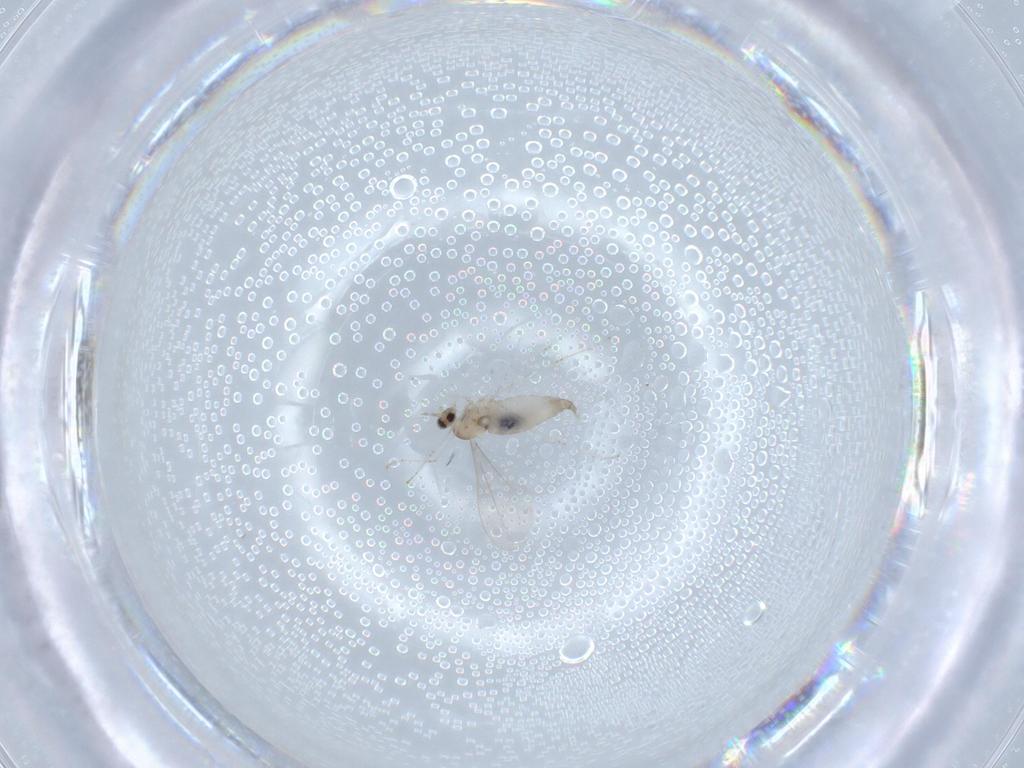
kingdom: Animalia
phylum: Arthropoda
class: Insecta
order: Diptera
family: Cecidomyiidae
